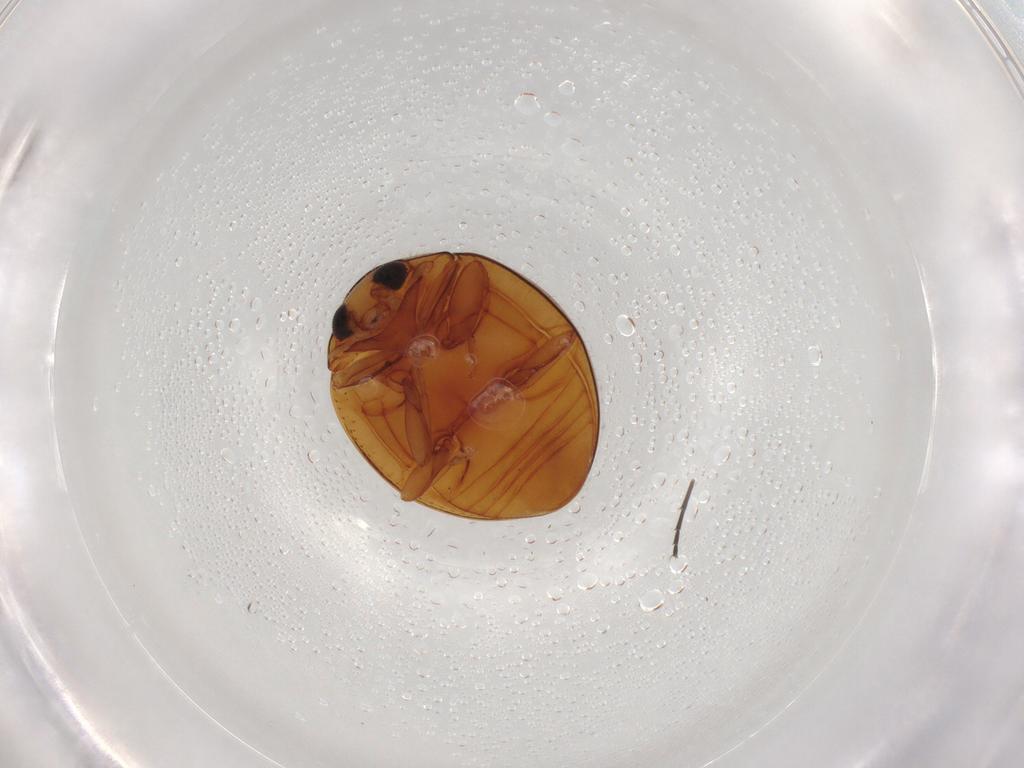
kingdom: Animalia
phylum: Arthropoda
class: Insecta
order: Coleoptera
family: Coccinellidae
